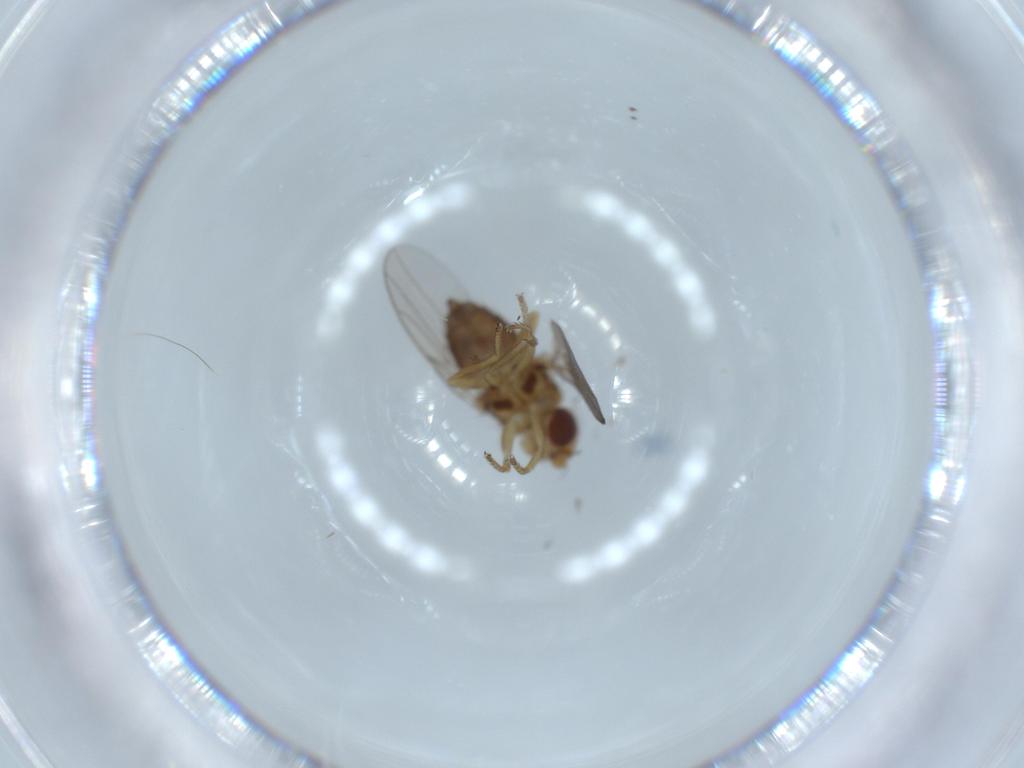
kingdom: Animalia
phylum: Arthropoda
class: Insecta
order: Diptera
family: Chloropidae
